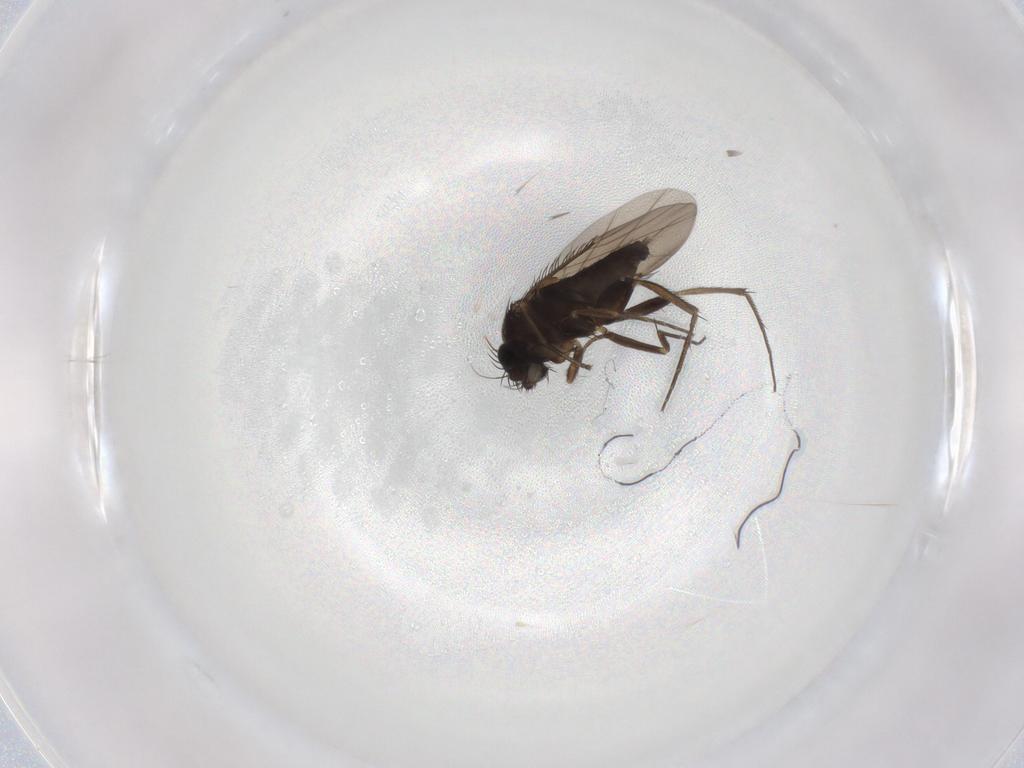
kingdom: Animalia
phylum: Arthropoda
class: Insecta
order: Diptera
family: Phoridae
